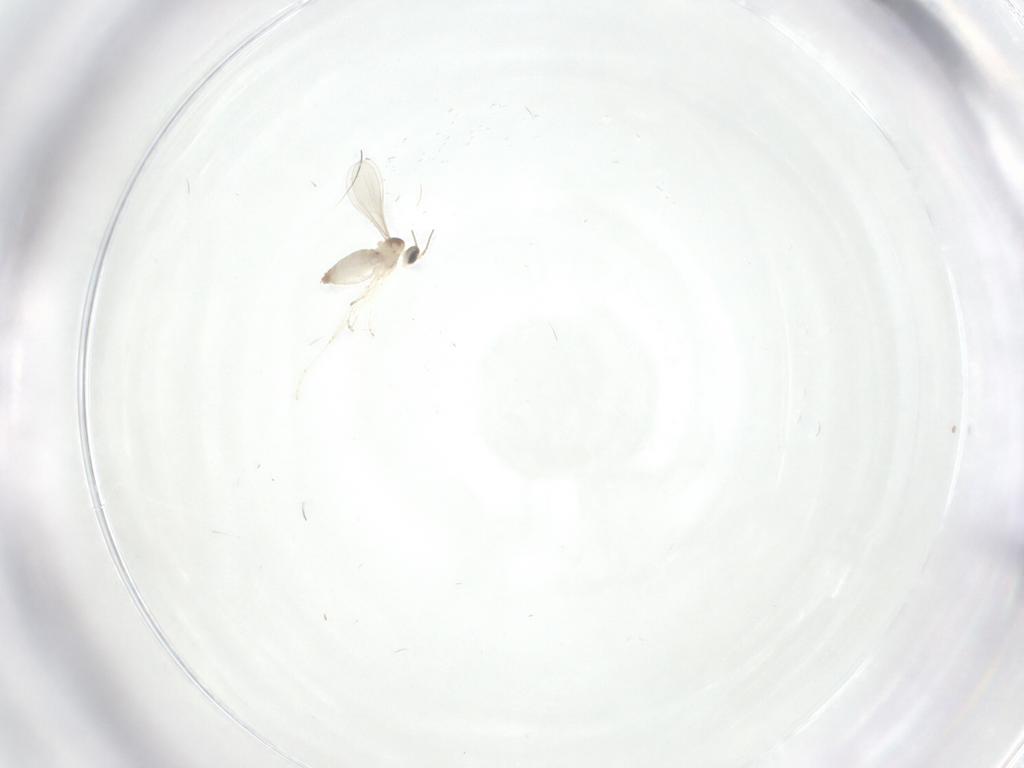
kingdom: Animalia
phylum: Arthropoda
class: Insecta
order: Diptera
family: Cecidomyiidae
